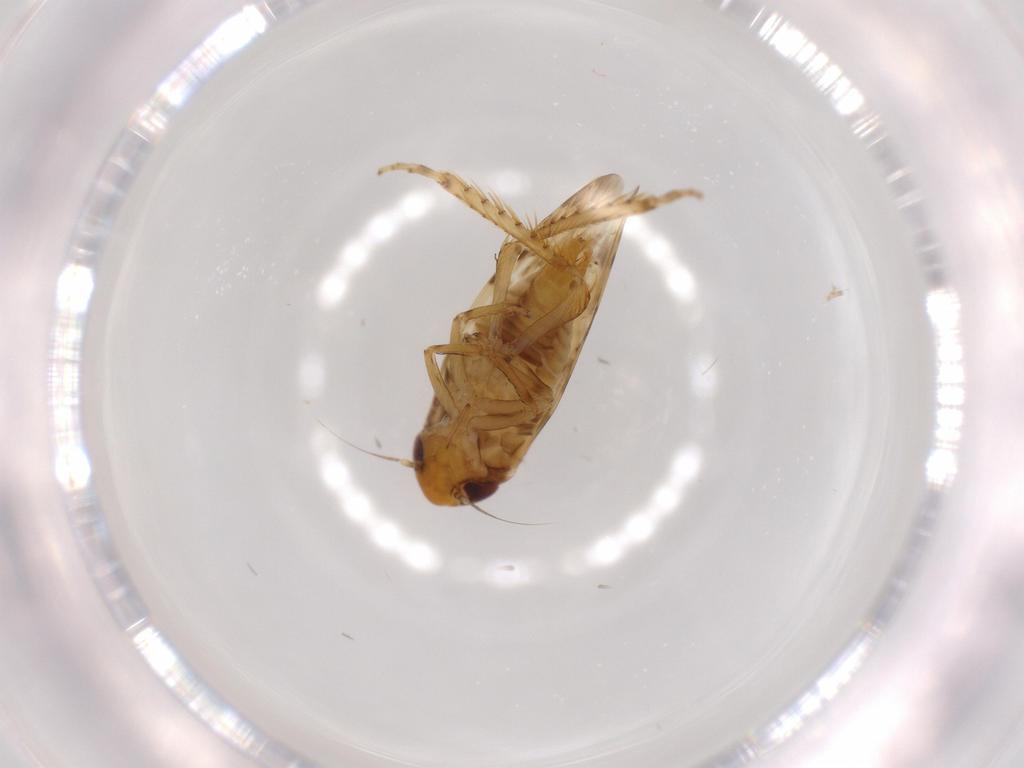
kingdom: Animalia
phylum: Arthropoda
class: Insecta
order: Hemiptera
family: Cicadellidae
